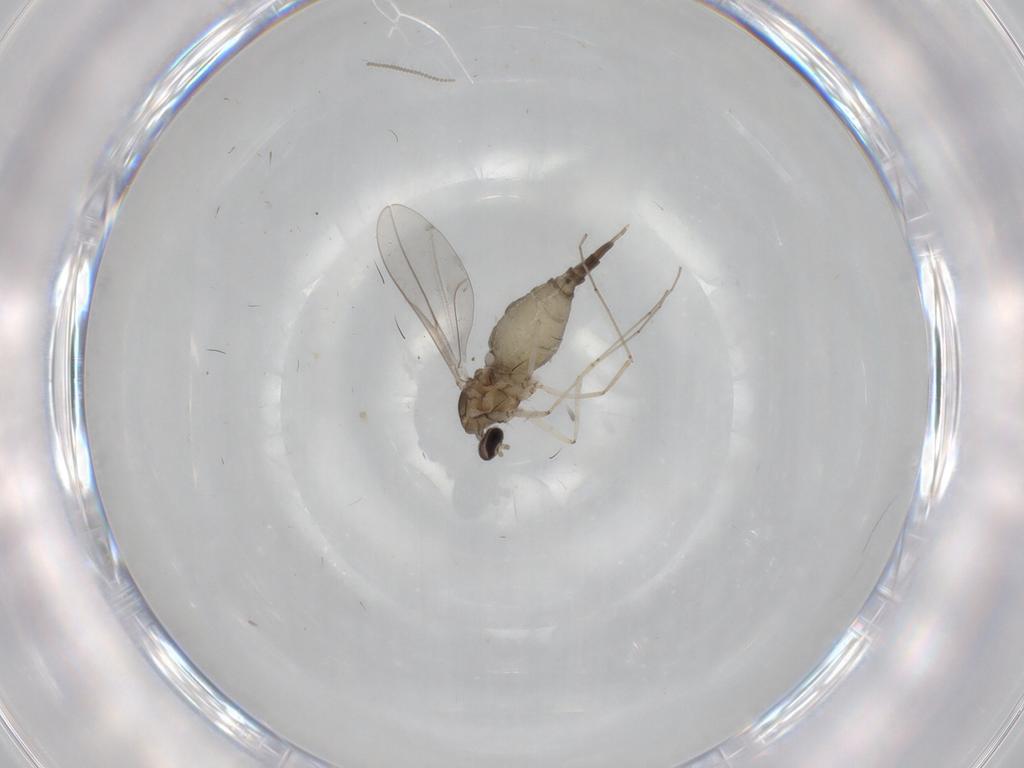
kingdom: Animalia
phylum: Arthropoda
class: Insecta
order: Diptera
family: Cecidomyiidae
